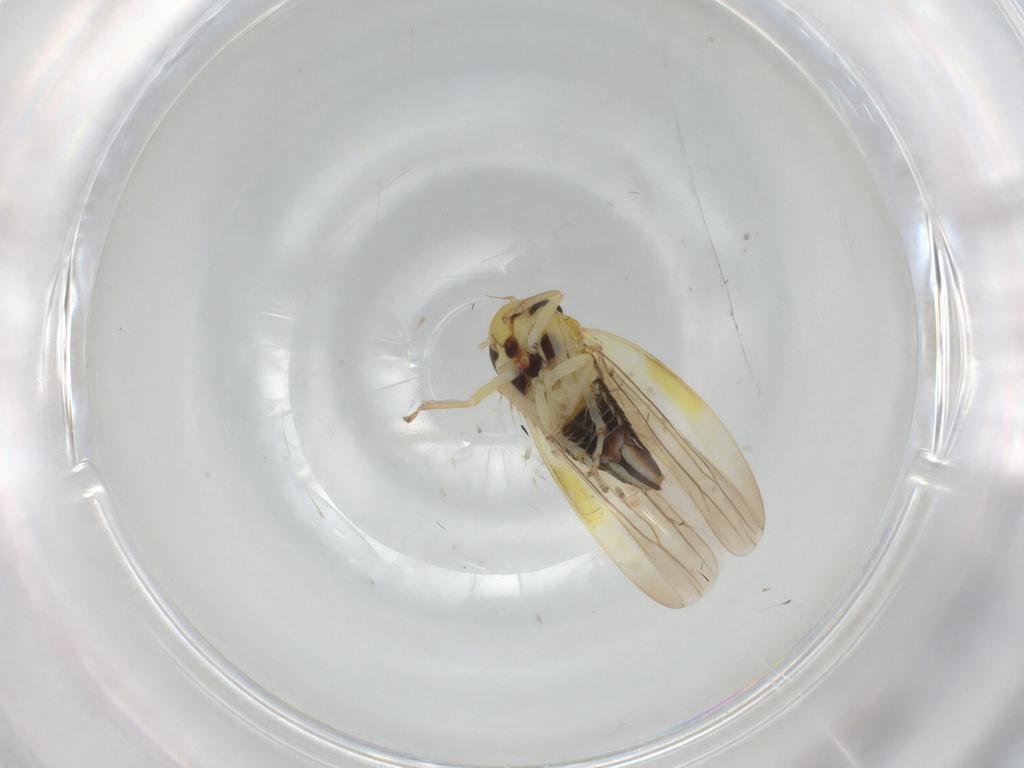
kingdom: Animalia
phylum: Arthropoda
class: Insecta
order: Hemiptera
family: Cicadellidae
